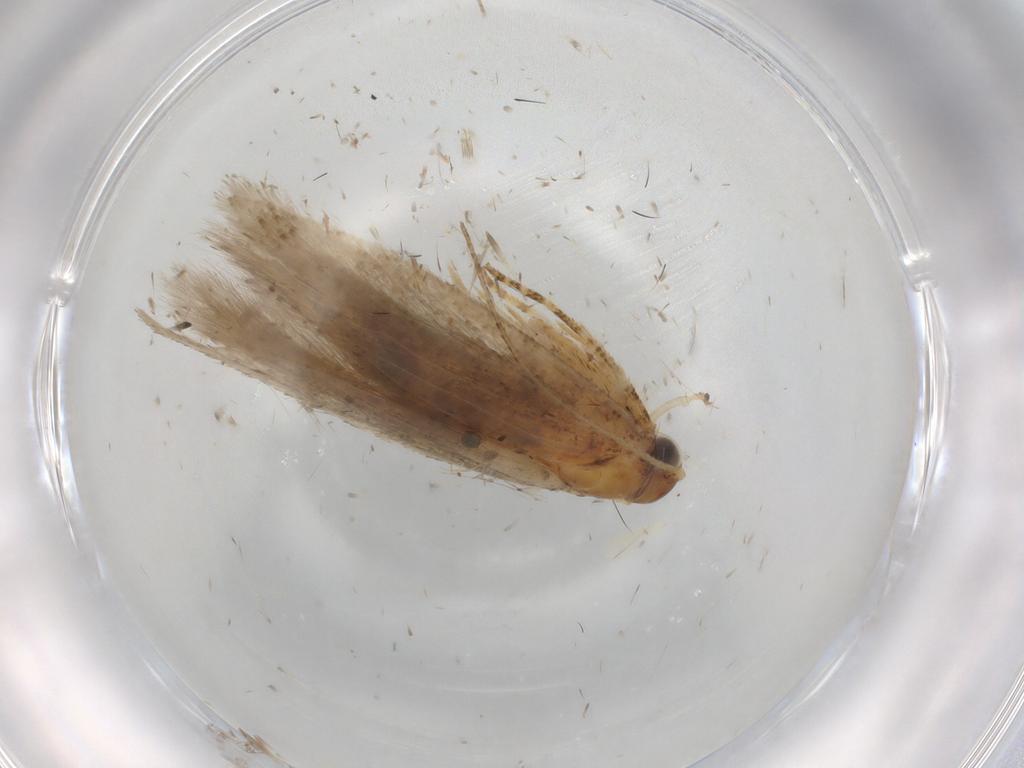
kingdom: Animalia
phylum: Arthropoda
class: Insecta
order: Lepidoptera
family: Gelechiidae
